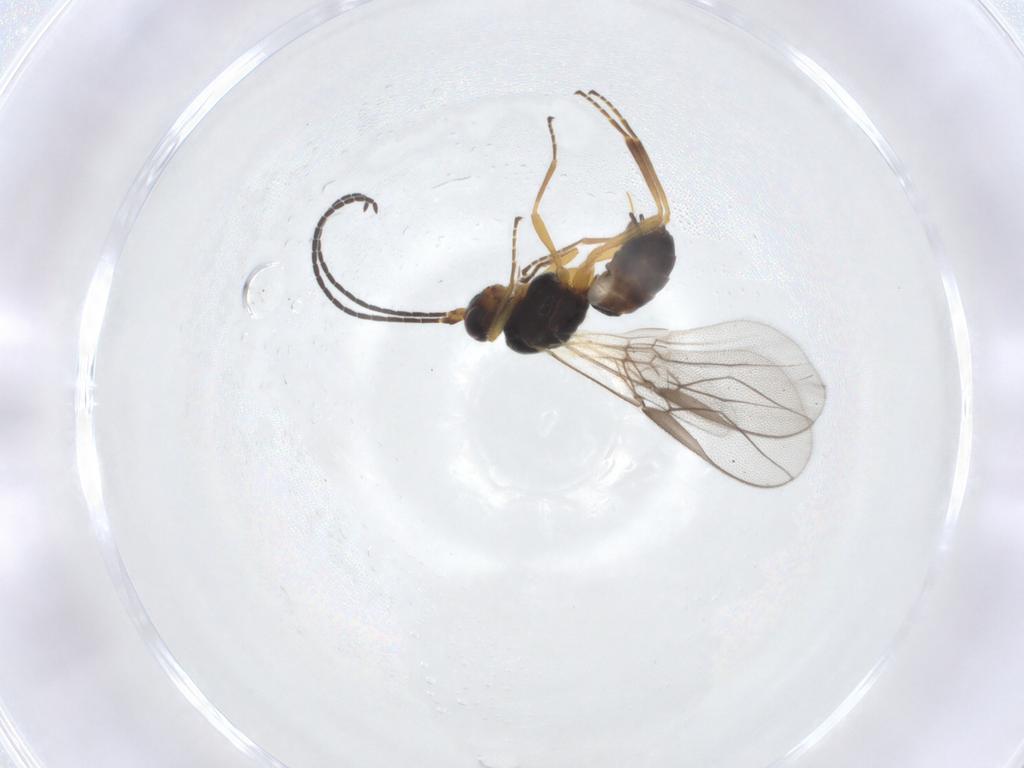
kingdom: Animalia
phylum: Arthropoda
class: Insecta
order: Hymenoptera
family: Braconidae
